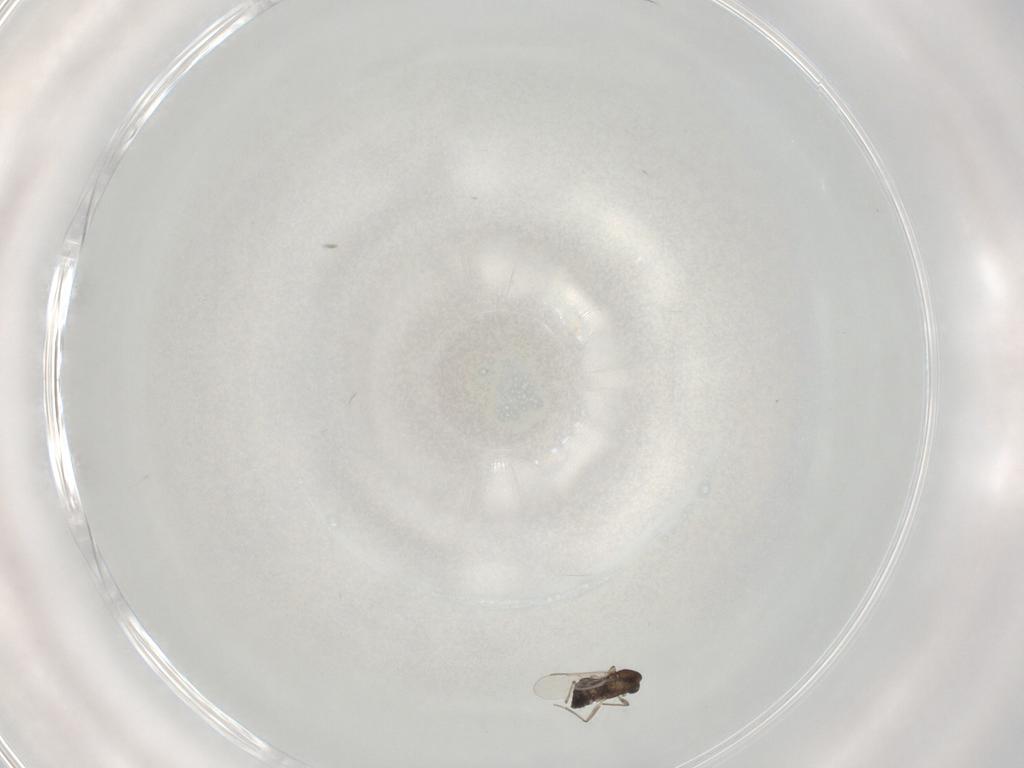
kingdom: Animalia
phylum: Arthropoda
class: Insecta
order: Diptera
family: Chironomidae
